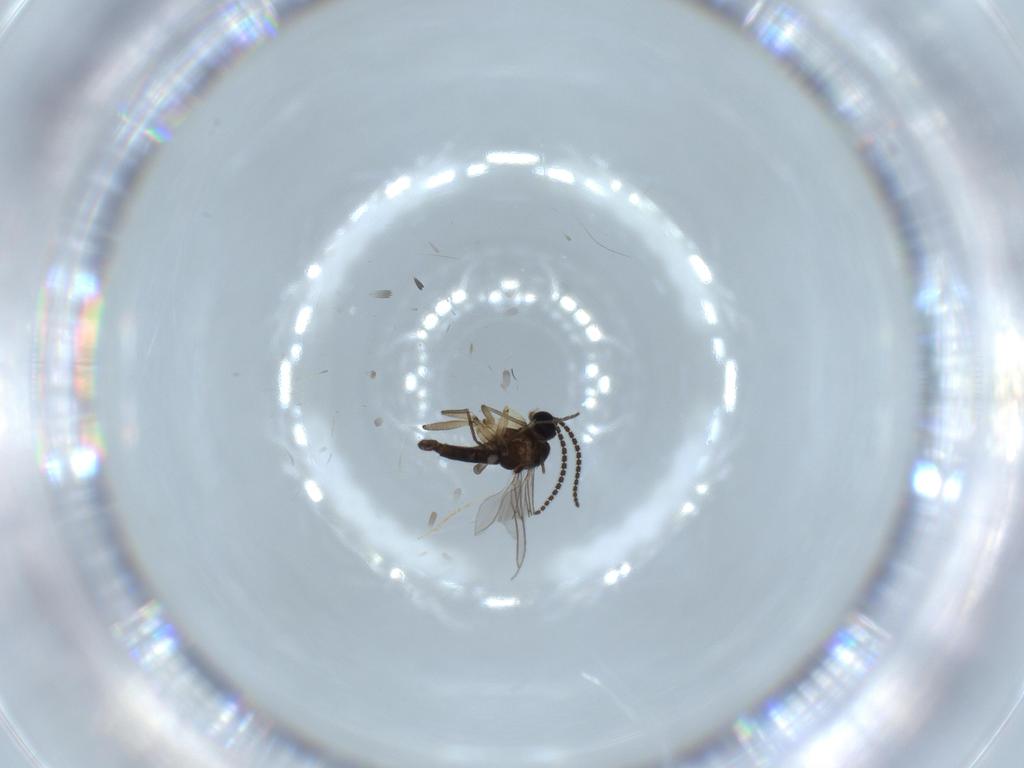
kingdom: Animalia
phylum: Arthropoda
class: Insecta
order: Diptera
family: Sciaridae
